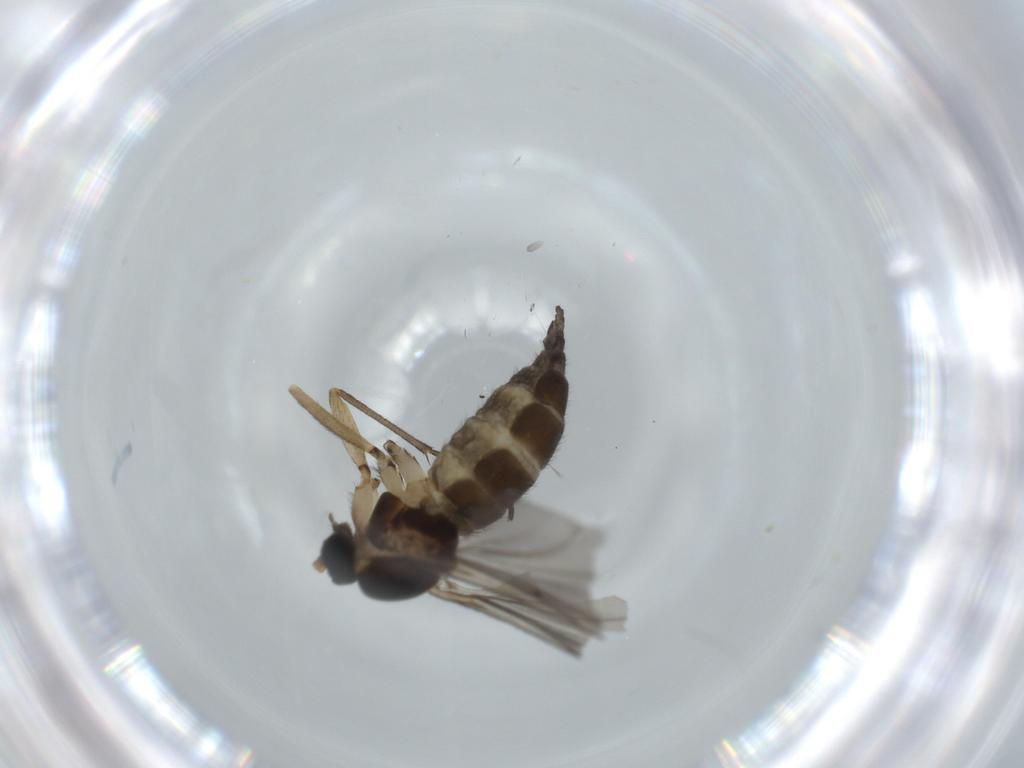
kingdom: Animalia
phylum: Arthropoda
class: Insecta
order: Diptera
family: Sciaridae
